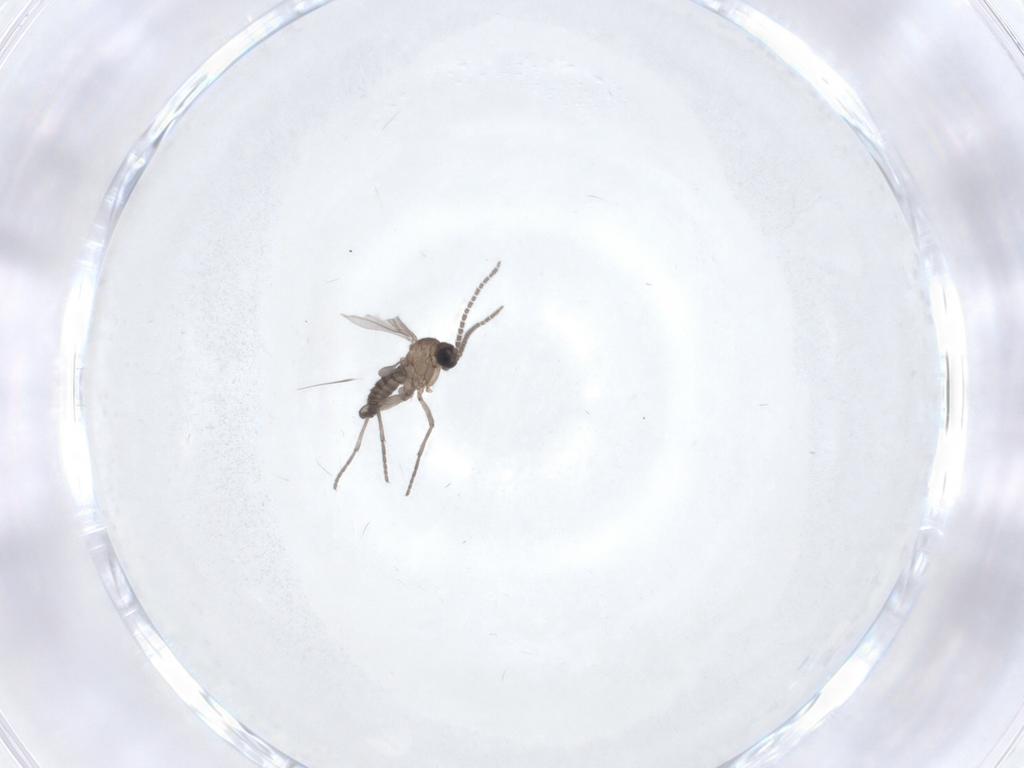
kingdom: Animalia
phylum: Arthropoda
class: Insecta
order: Diptera
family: Sciaridae
